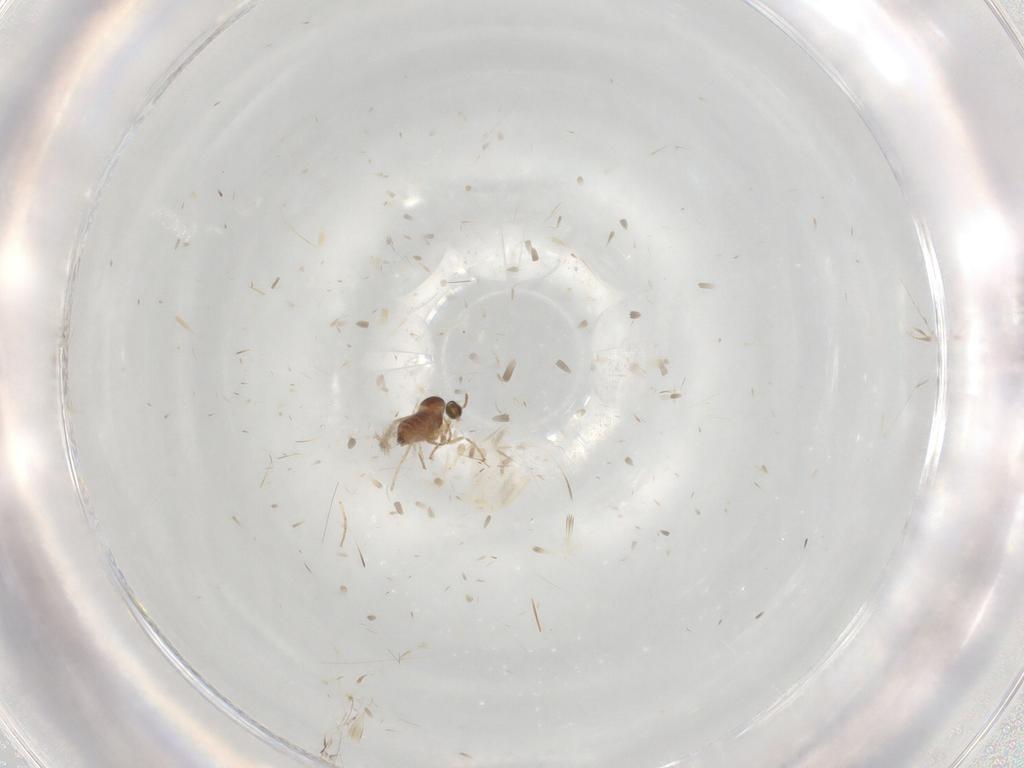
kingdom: Animalia
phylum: Arthropoda
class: Insecta
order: Diptera
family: Cecidomyiidae
